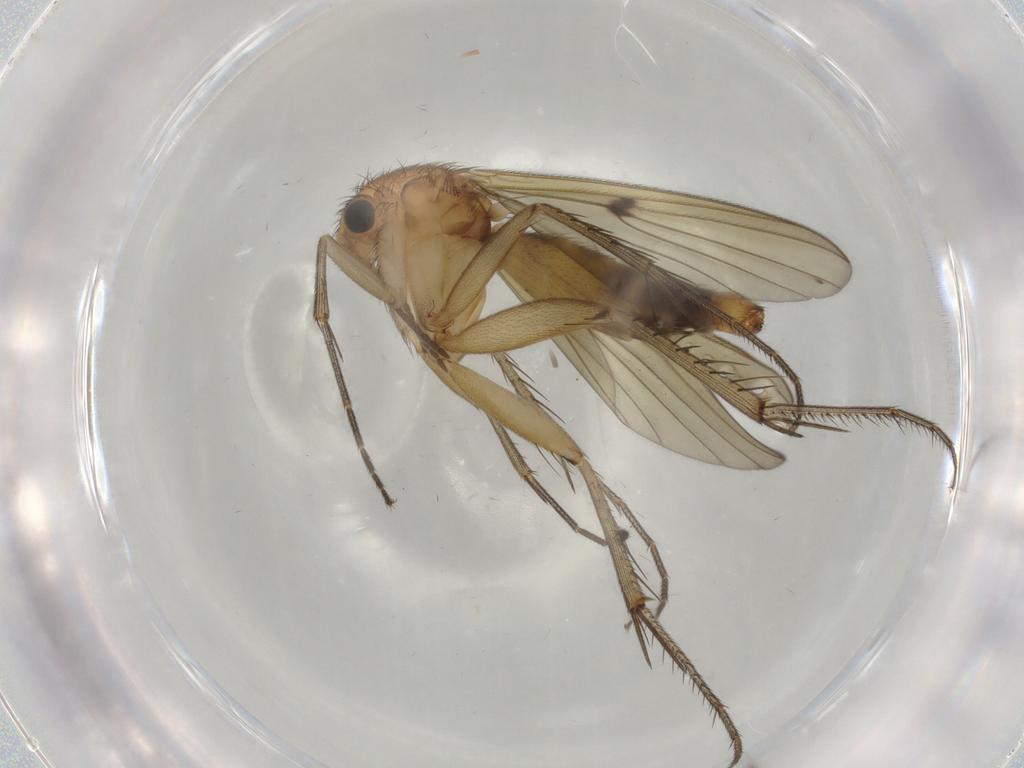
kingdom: Animalia
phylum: Arthropoda
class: Insecta
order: Diptera
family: Mycetophilidae
